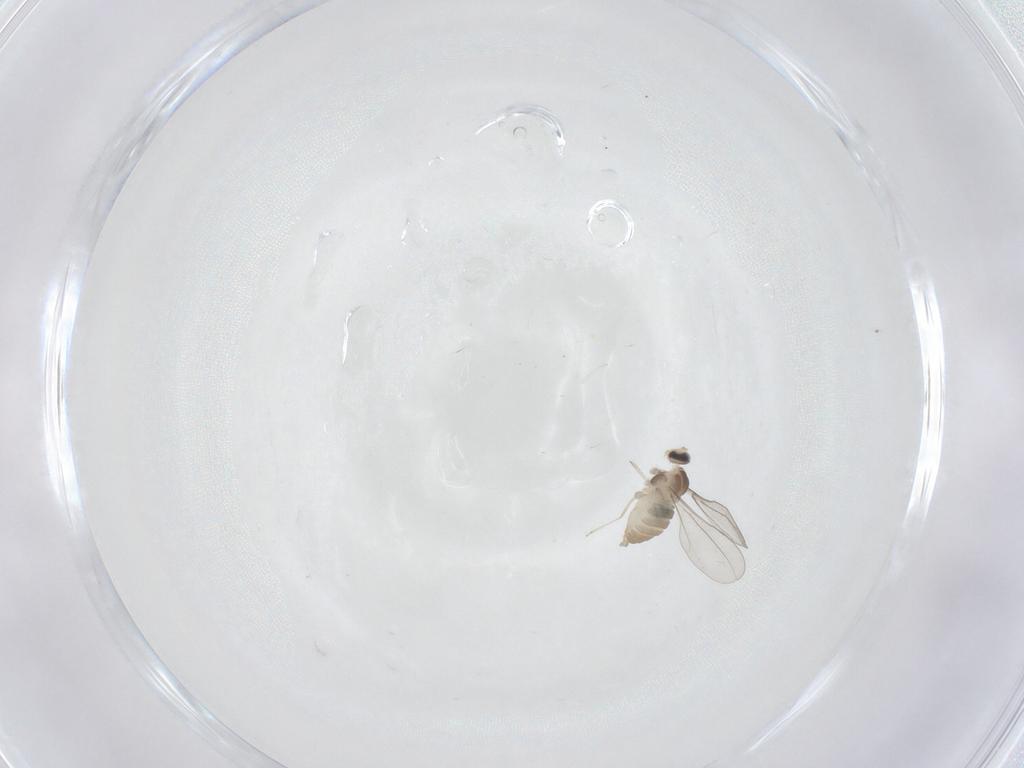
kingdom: Animalia
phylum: Arthropoda
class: Insecta
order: Diptera
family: Cecidomyiidae
